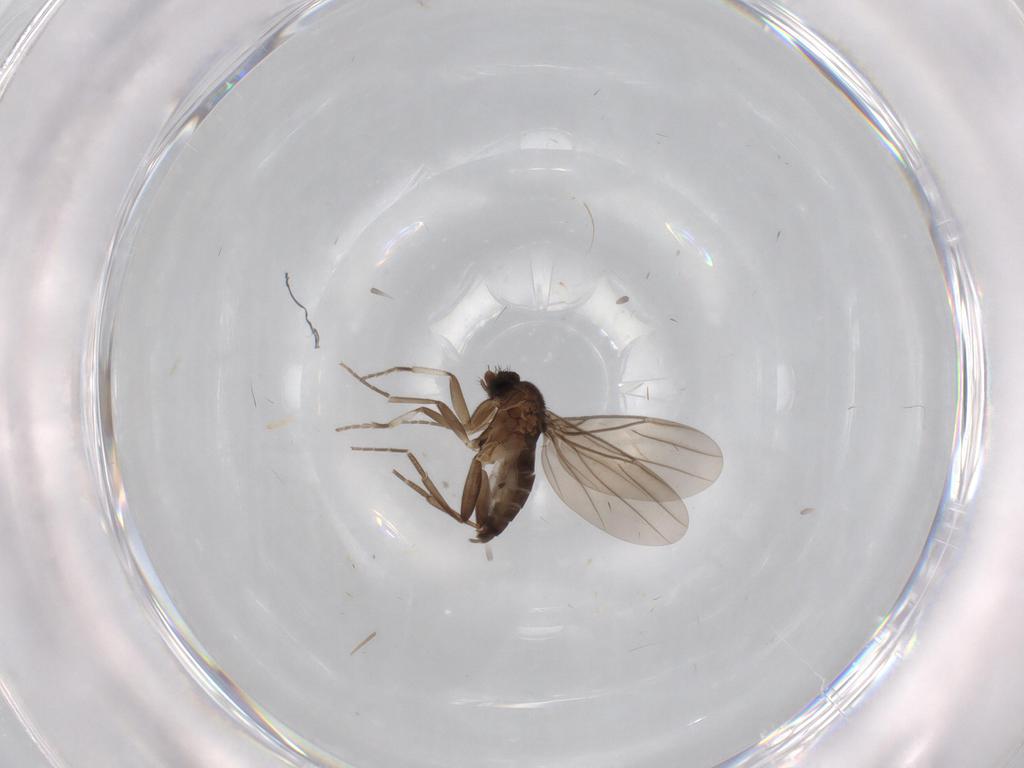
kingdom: Animalia
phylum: Arthropoda
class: Insecta
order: Diptera
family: Phoridae
